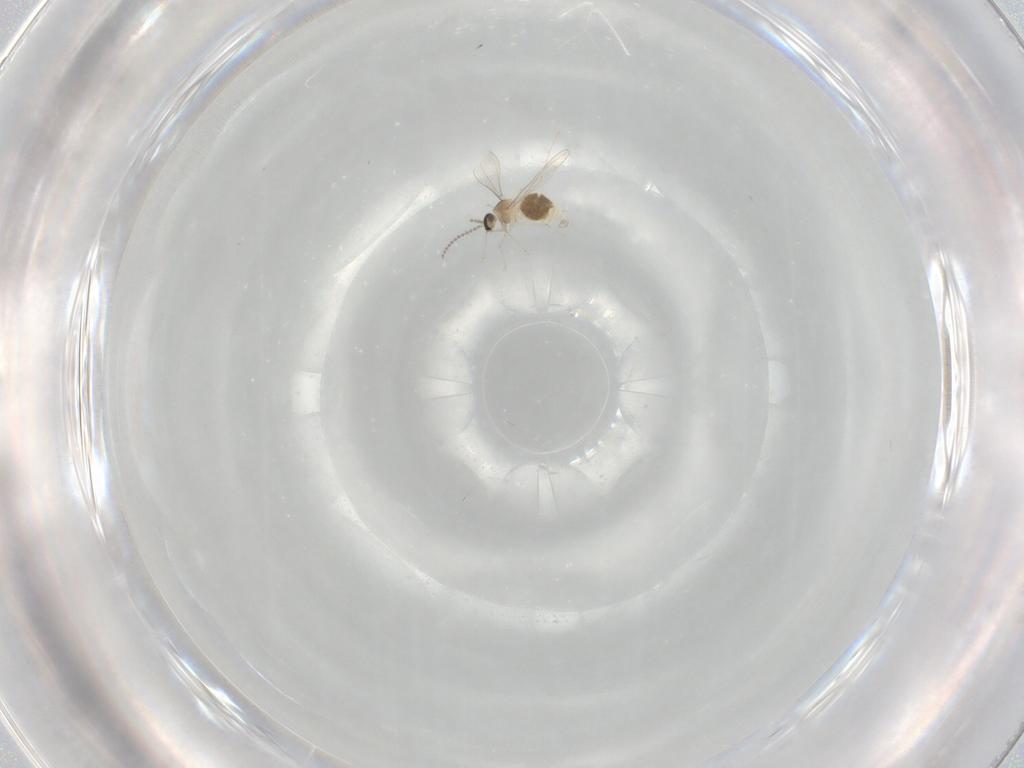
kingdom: Animalia
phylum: Arthropoda
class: Insecta
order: Diptera
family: Cecidomyiidae
